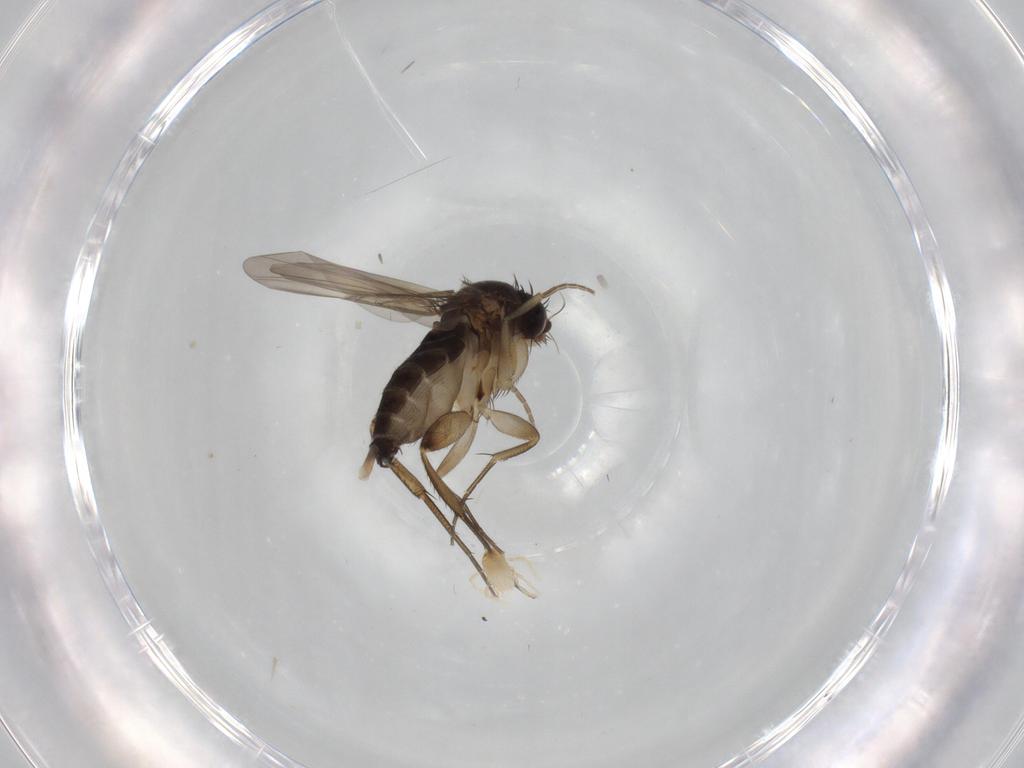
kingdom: Animalia
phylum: Arthropoda
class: Insecta
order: Diptera
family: Phoridae
